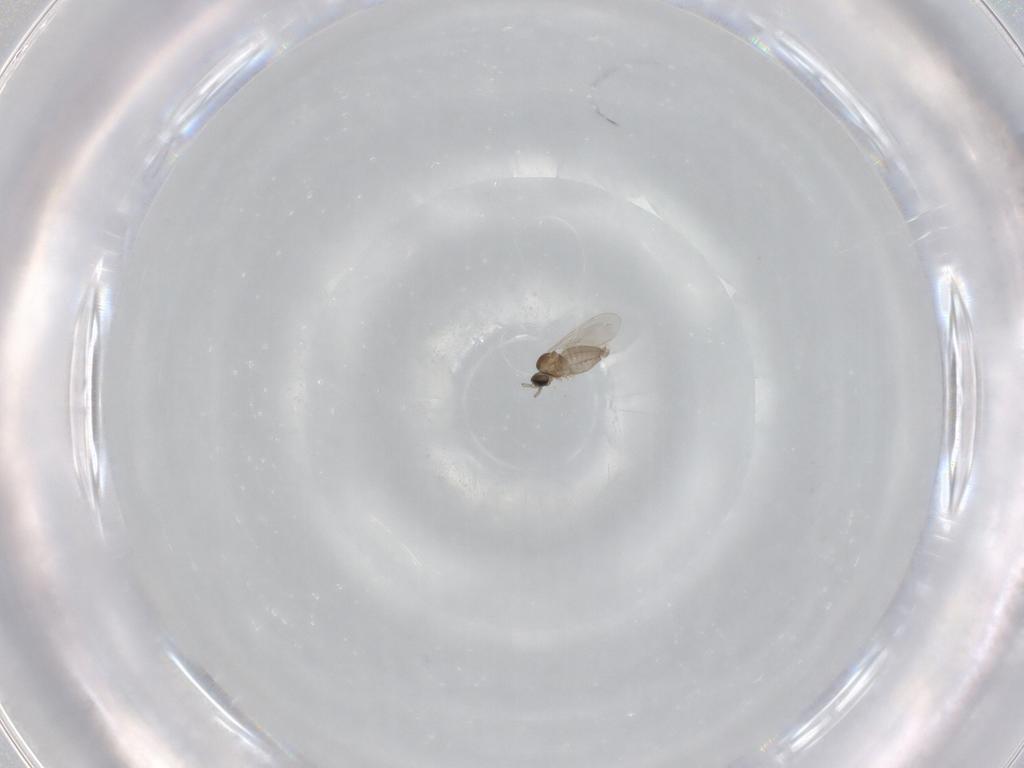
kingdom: Animalia
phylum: Arthropoda
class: Insecta
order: Diptera
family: Cecidomyiidae
